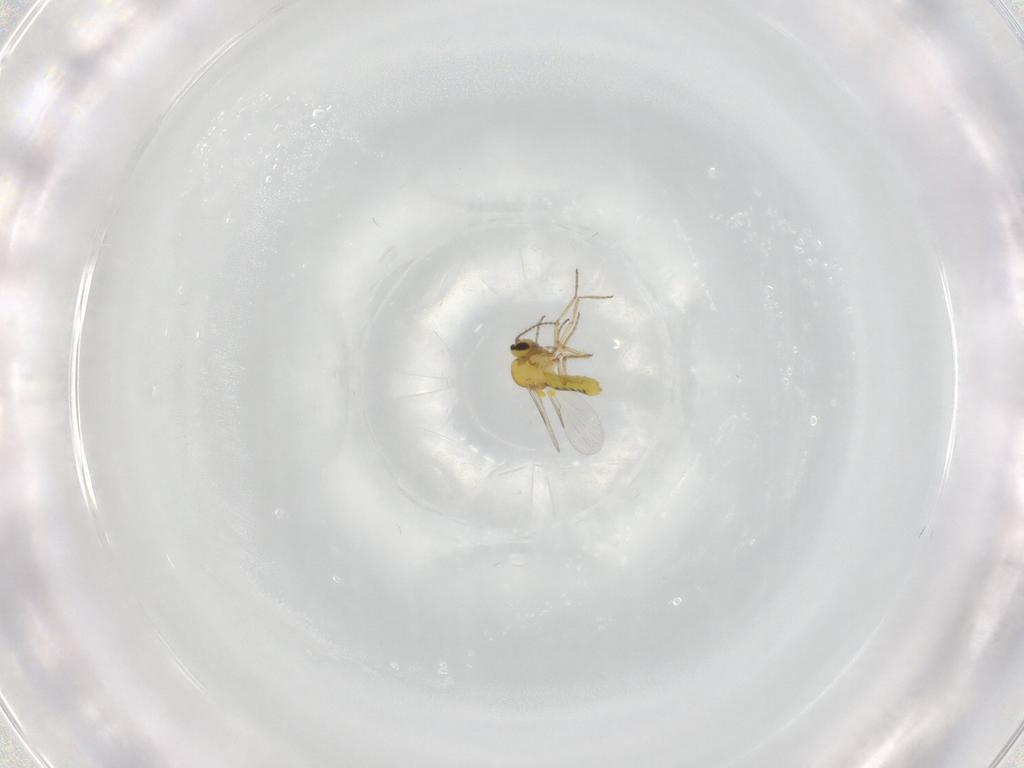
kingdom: Animalia
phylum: Arthropoda
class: Insecta
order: Diptera
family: Ceratopogonidae
